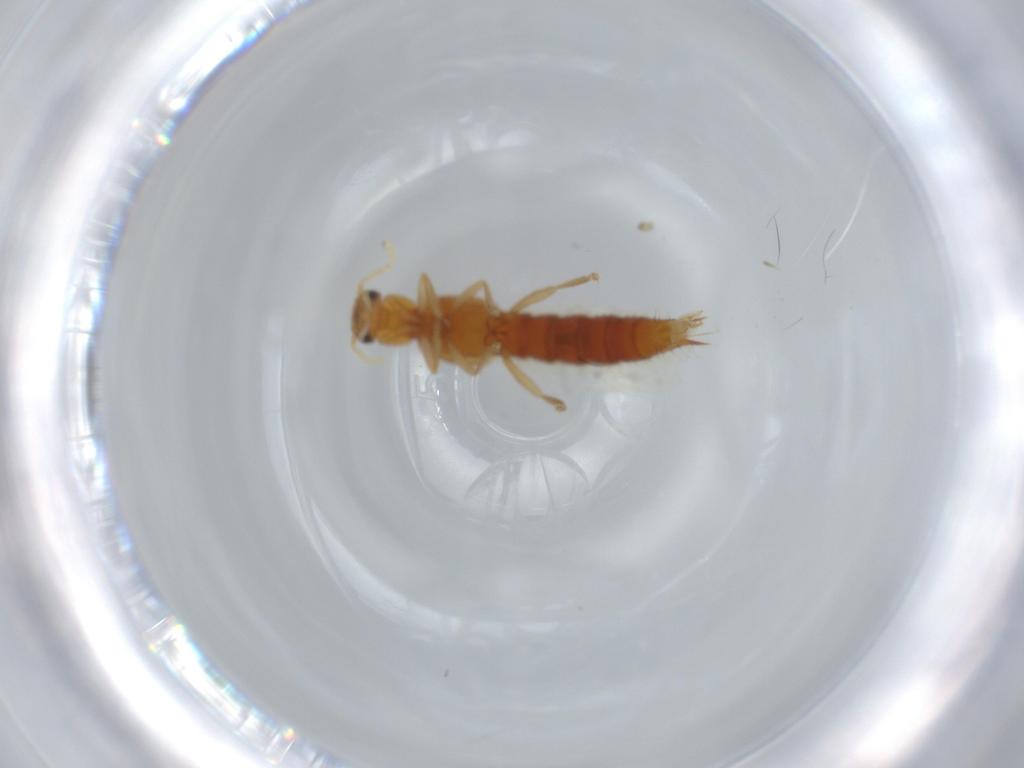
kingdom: Animalia
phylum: Arthropoda
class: Insecta
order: Coleoptera
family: Staphylinidae
